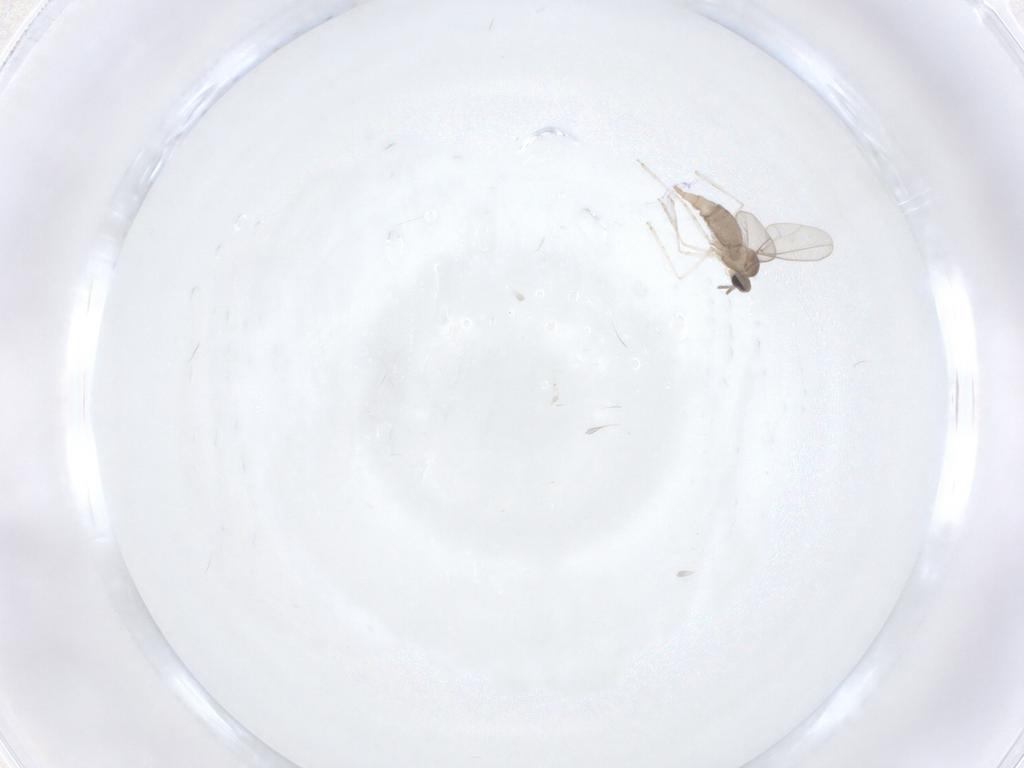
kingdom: Animalia
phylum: Arthropoda
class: Insecta
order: Diptera
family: Cecidomyiidae
